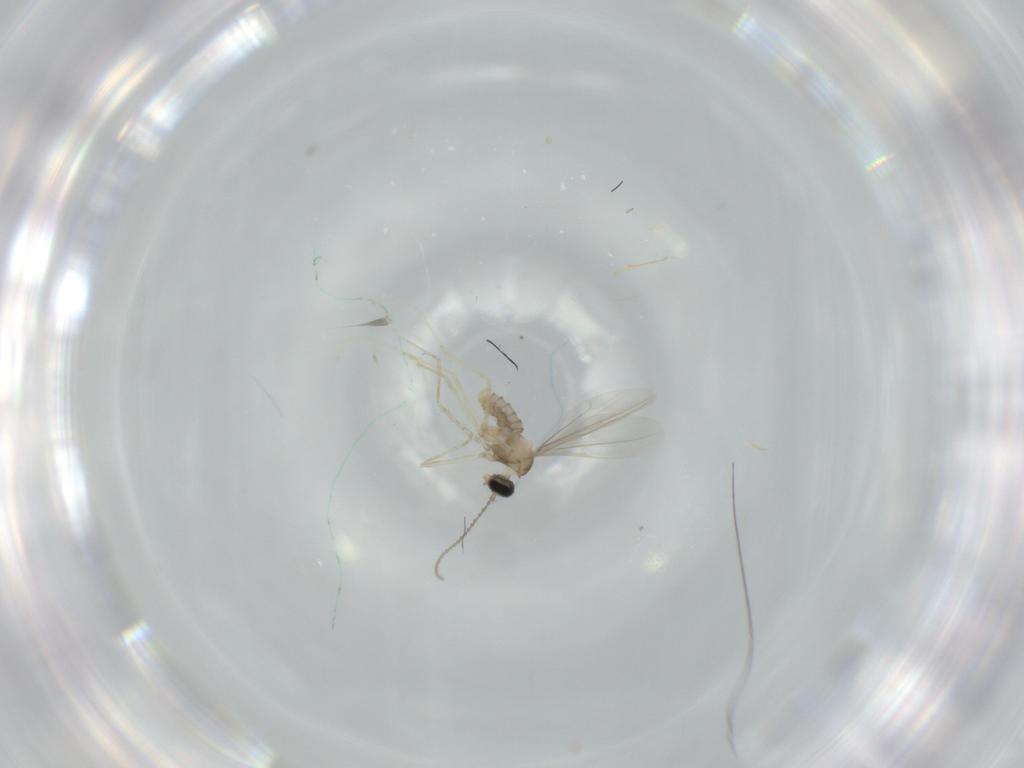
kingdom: Animalia
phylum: Arthropoda
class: Insecta
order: Diptera
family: Cecidomyiidae
